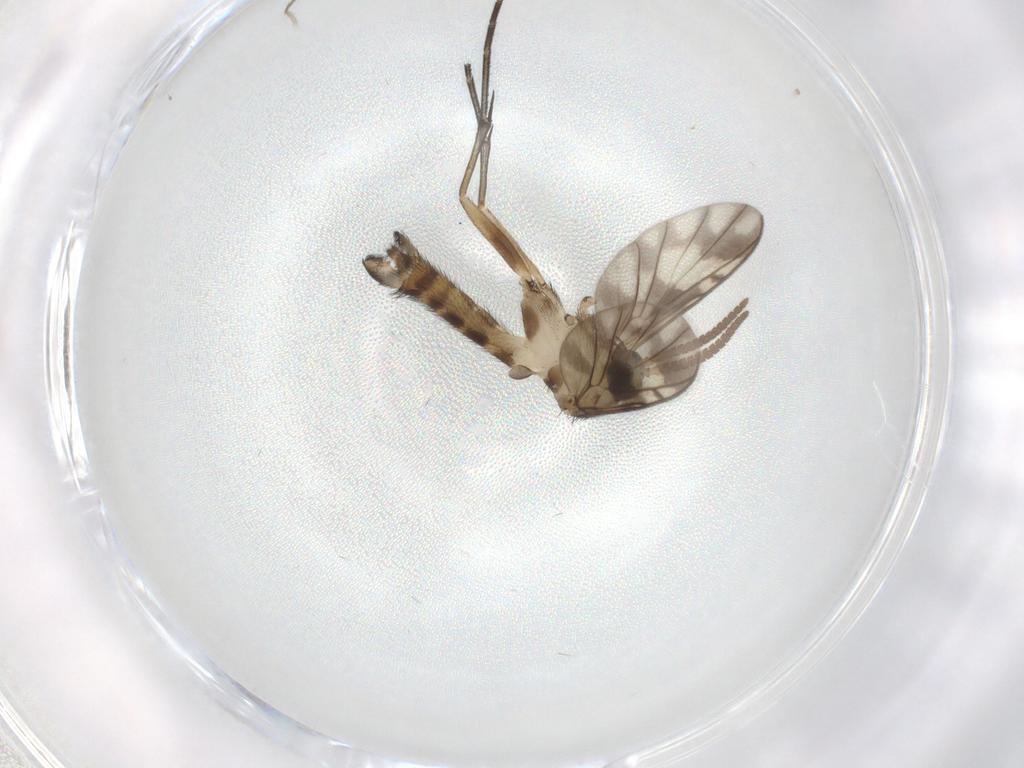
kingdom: Animalia
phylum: Arthropoda
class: Insecta
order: Diptera
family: Keroplatidae
